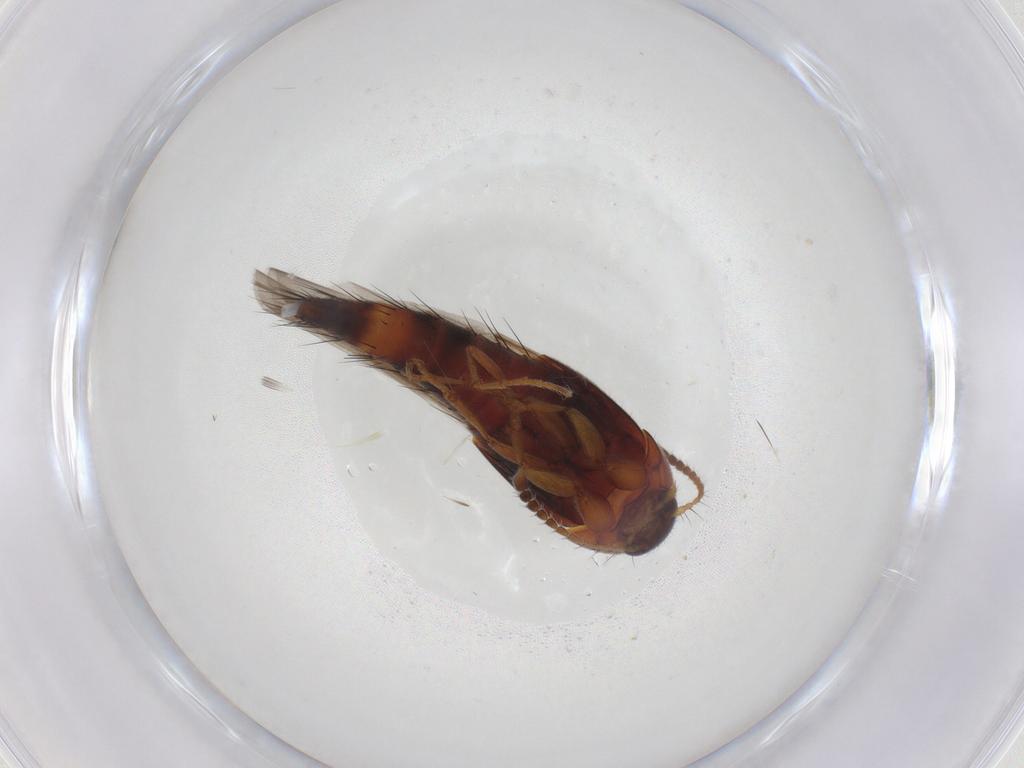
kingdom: Animalia
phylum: Arthropoda
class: Insecta
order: Coleoptera
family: Staphylinidae
